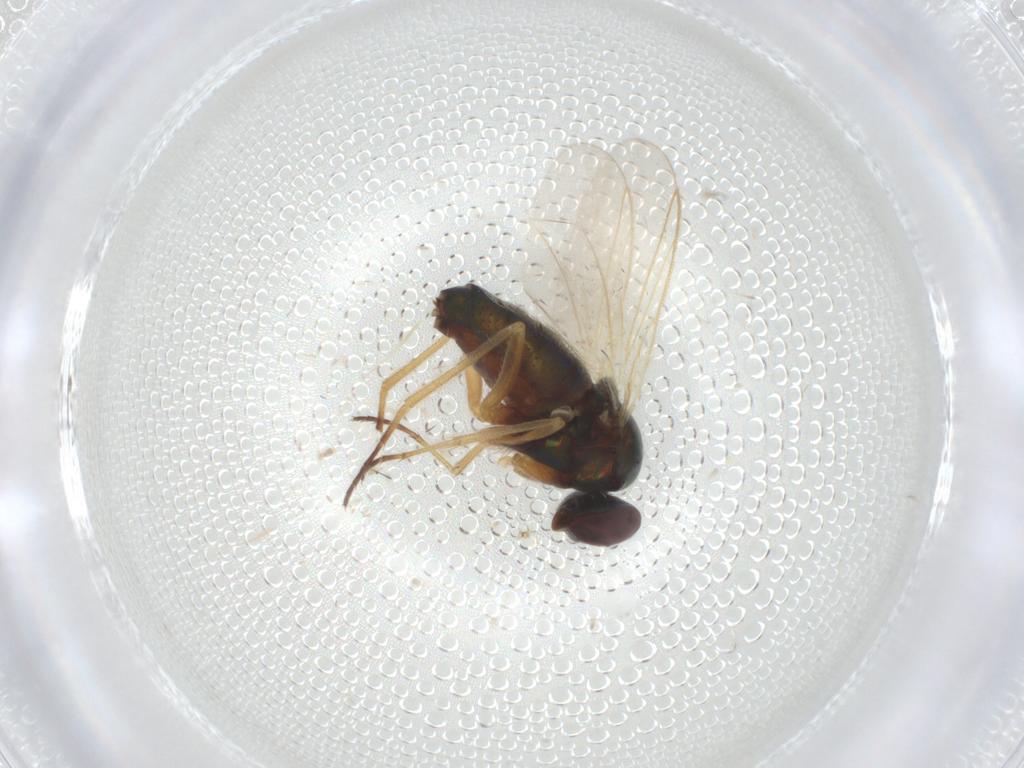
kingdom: Animalia
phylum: Arthropoda
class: Insecta
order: Diptera
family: Dolichopodidae
